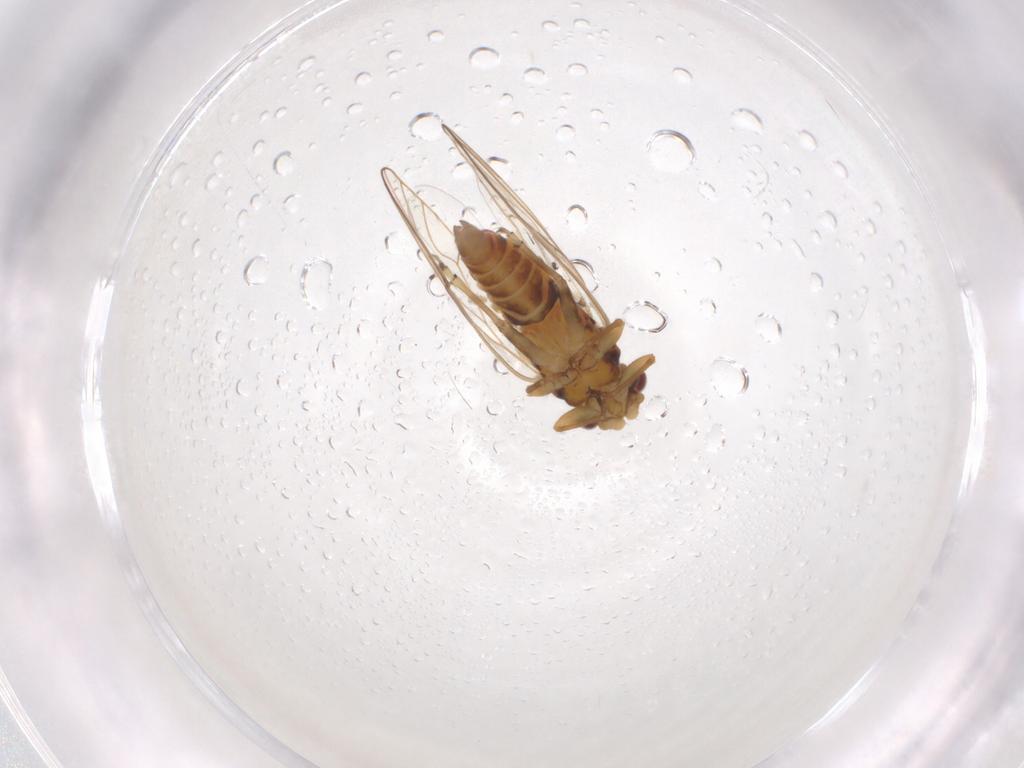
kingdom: Animalia
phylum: Arthropoda
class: Insecta
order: Hemiptera
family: Psyllidae
